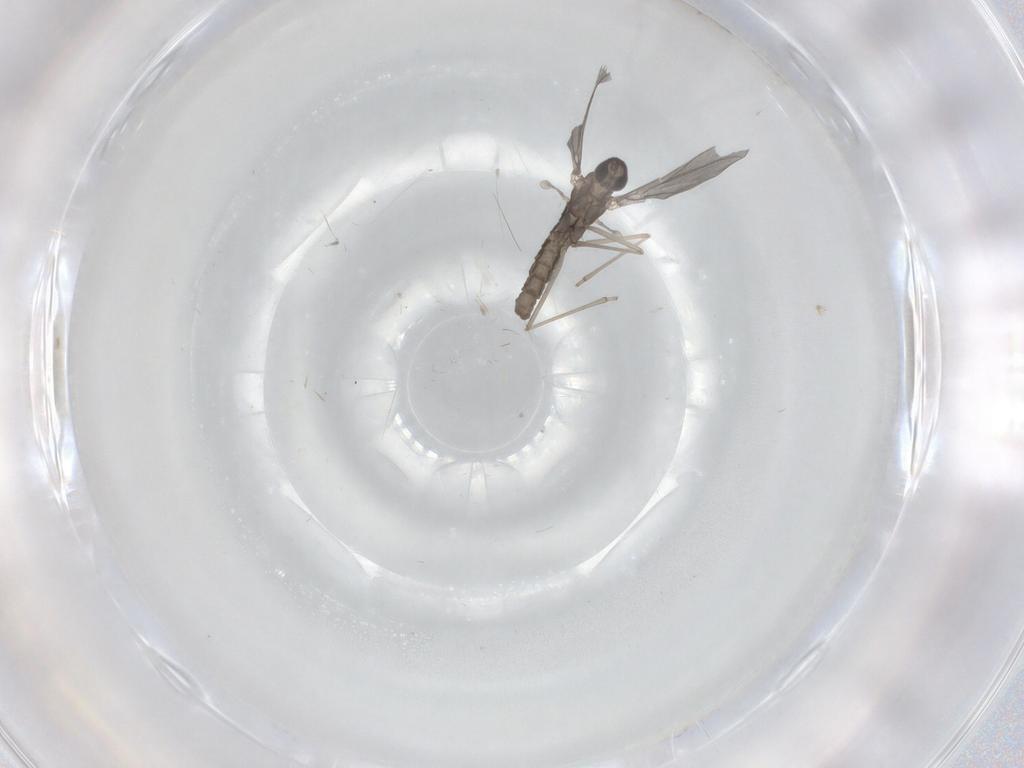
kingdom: Animalia
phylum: Arthropoda
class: Insecta
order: Diptera
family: Cecidomyiidae
